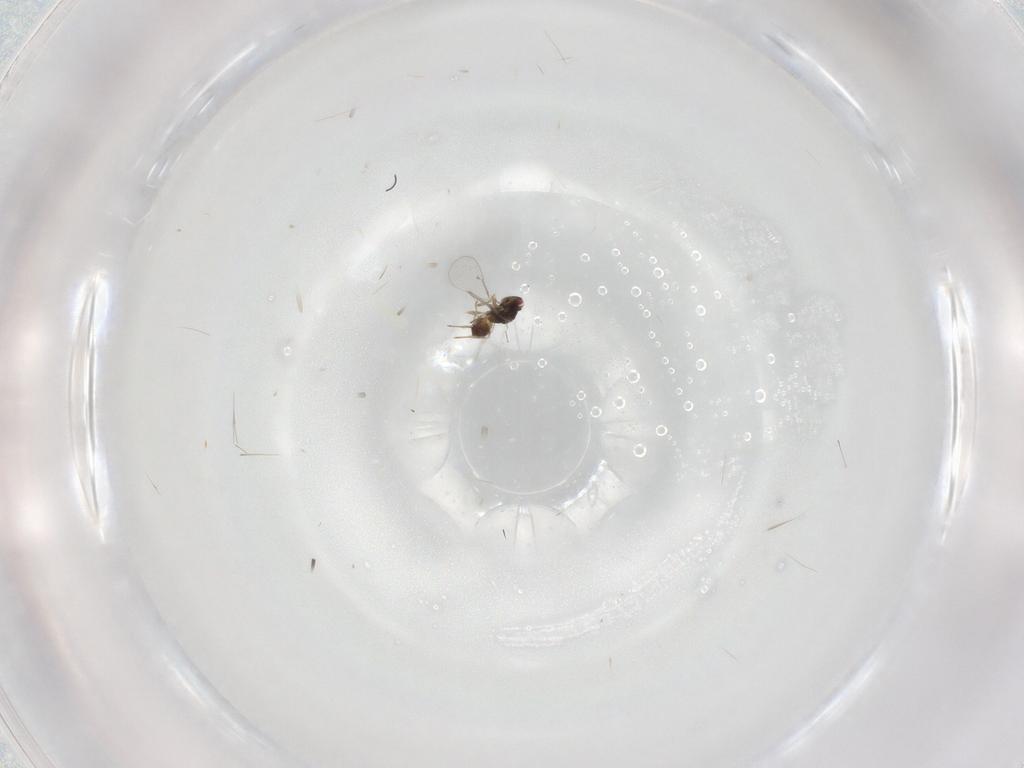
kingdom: Animalia
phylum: Arthropoda
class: Insecta
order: Hymenoptera
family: Eulophidae
